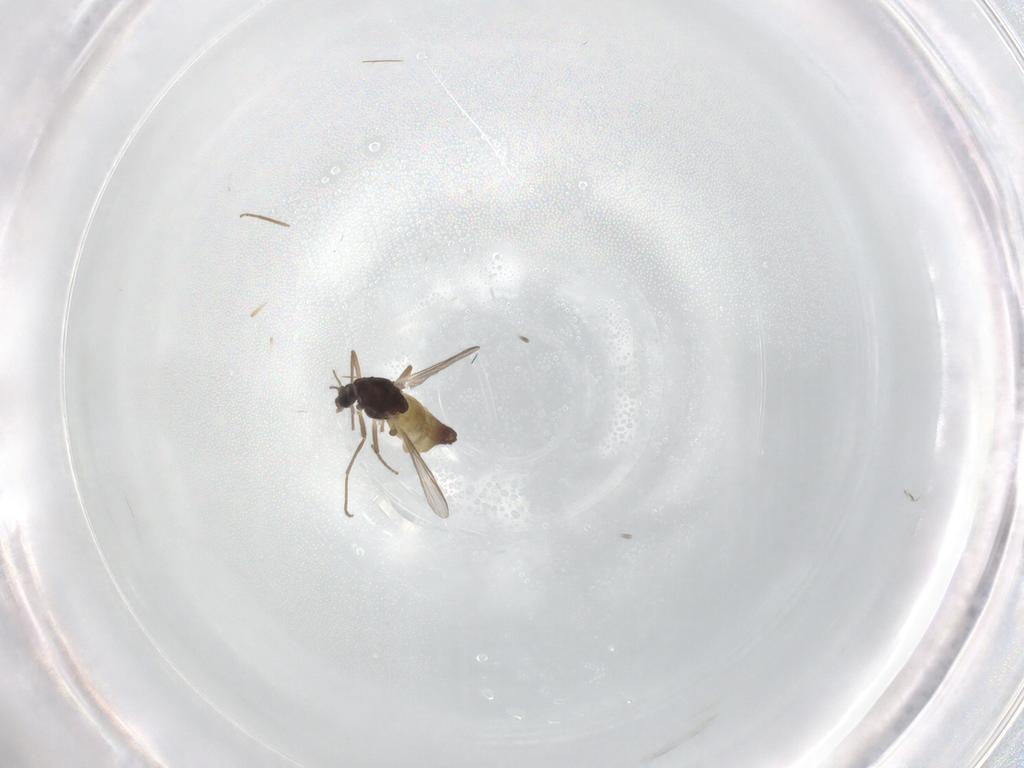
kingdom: Animalia
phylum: Arthropoda
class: Insecta
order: Diptera
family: Chironomidae
